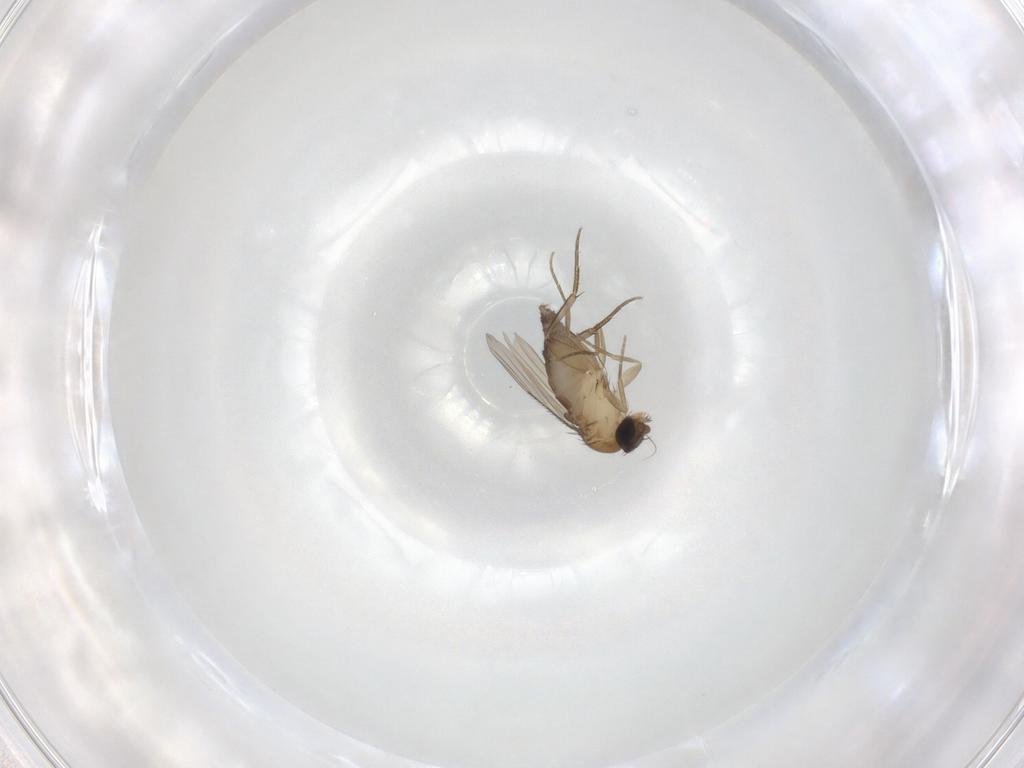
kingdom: Animalia
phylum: Arthropoda
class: Insecta
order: Diptera
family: Phoridae
